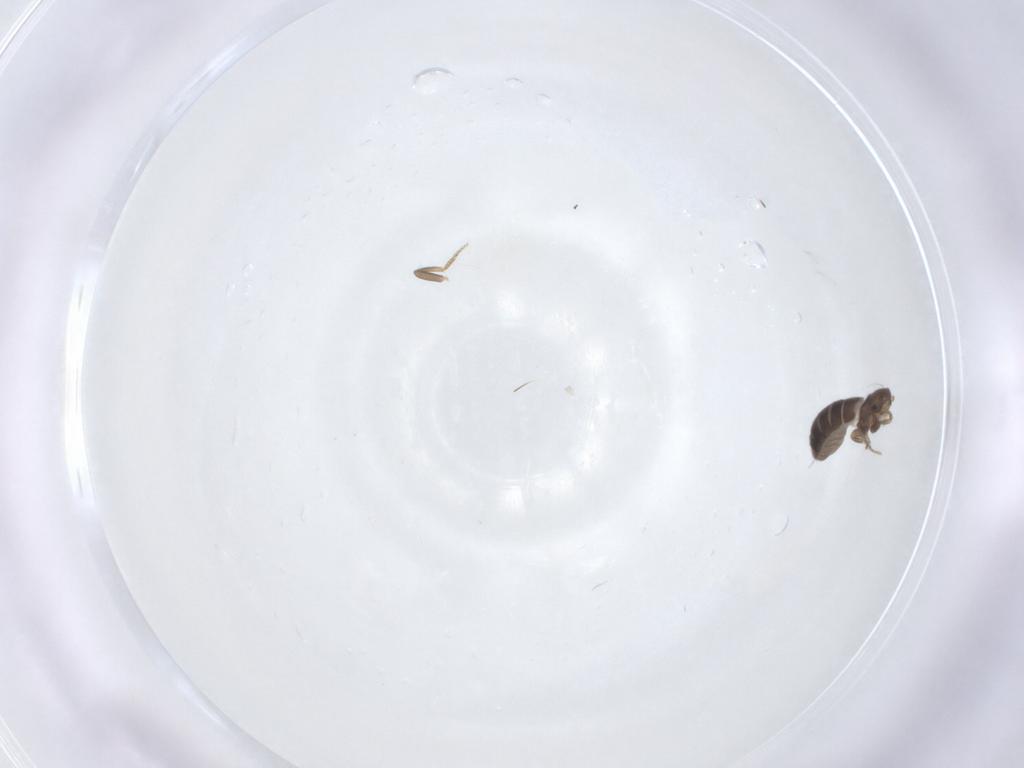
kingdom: Animalia
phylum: Arthropoda
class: Insecta
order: Diptera
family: Phoridae
